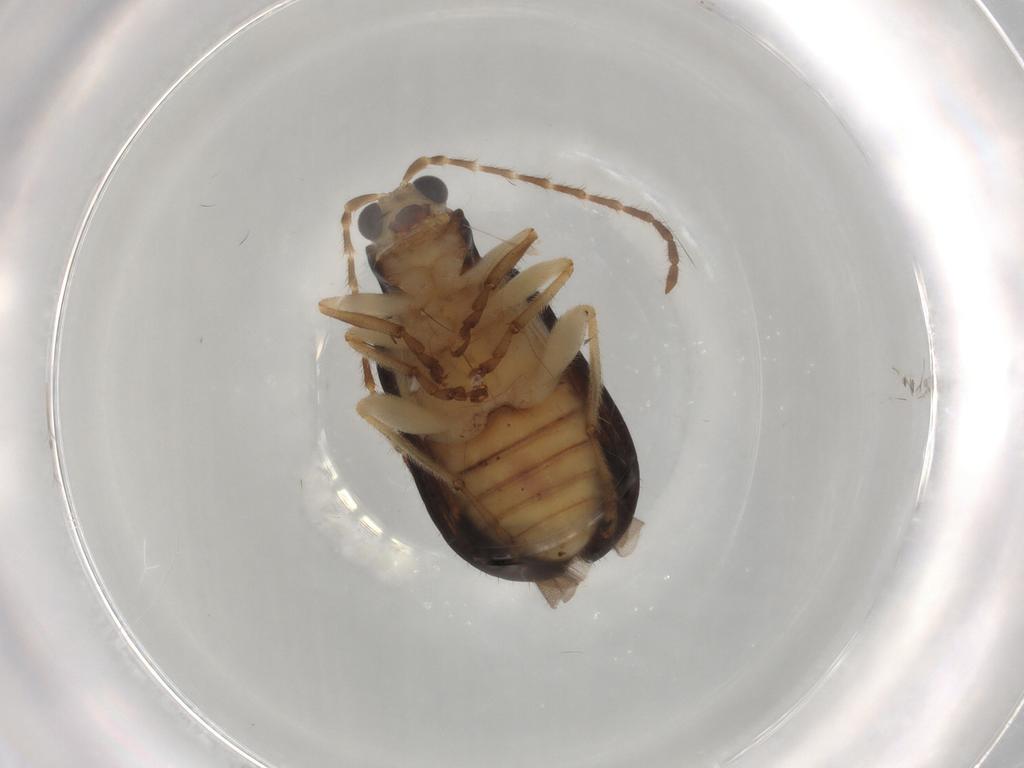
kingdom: Animalia
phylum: Arthropoda
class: Insecta
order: Coleoptera
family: Chrysomelidae
